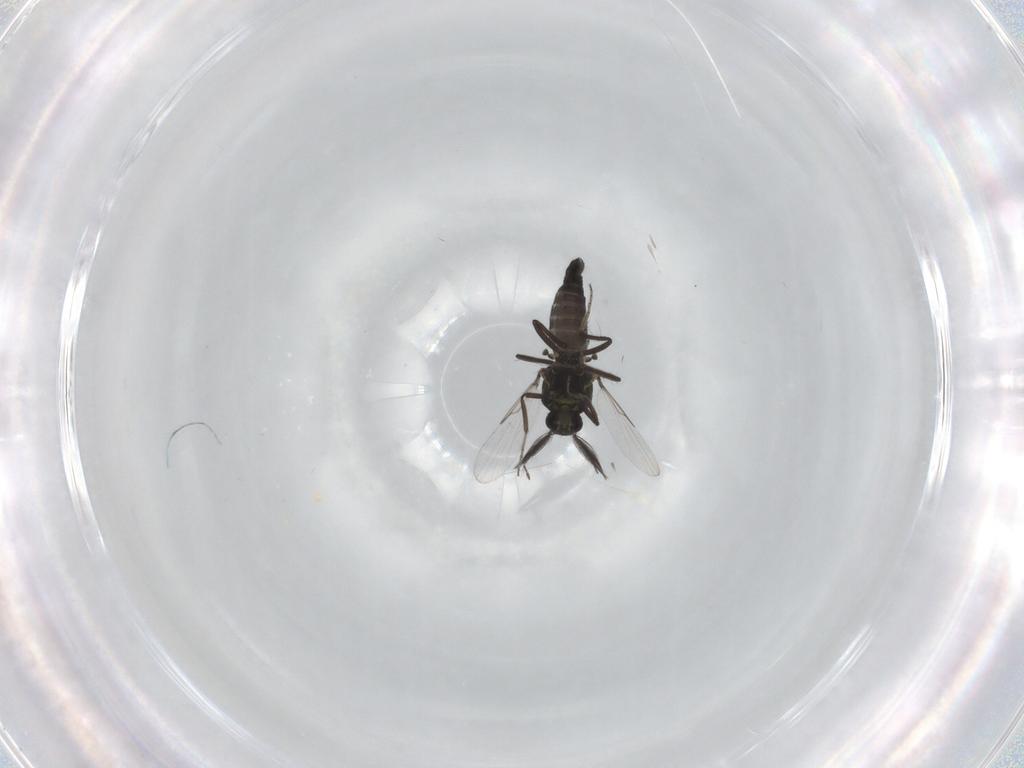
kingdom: Animalia
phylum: Arthropoda
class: Insecta
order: Diptera
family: Ceratopogonidae
